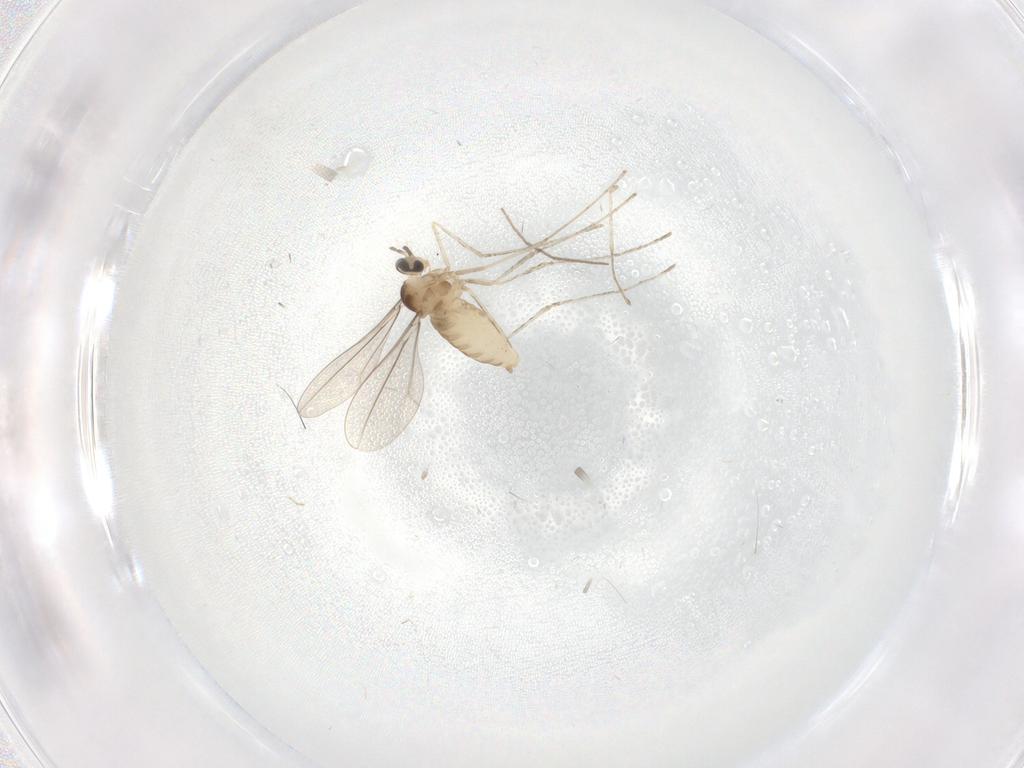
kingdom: Animalia
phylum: Arthropoda
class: Insecta
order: Diptera
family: Cecidomyiidae
